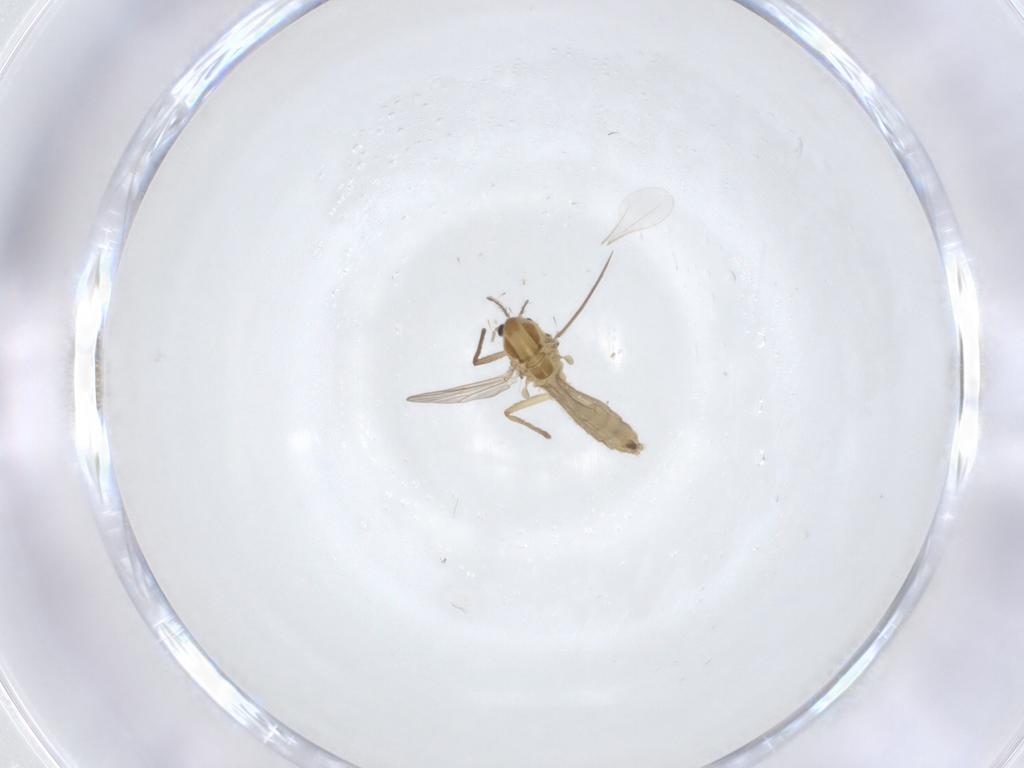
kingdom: Animalia
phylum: Arthropoda
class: Insecta
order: Diptera
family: Chironomidae
